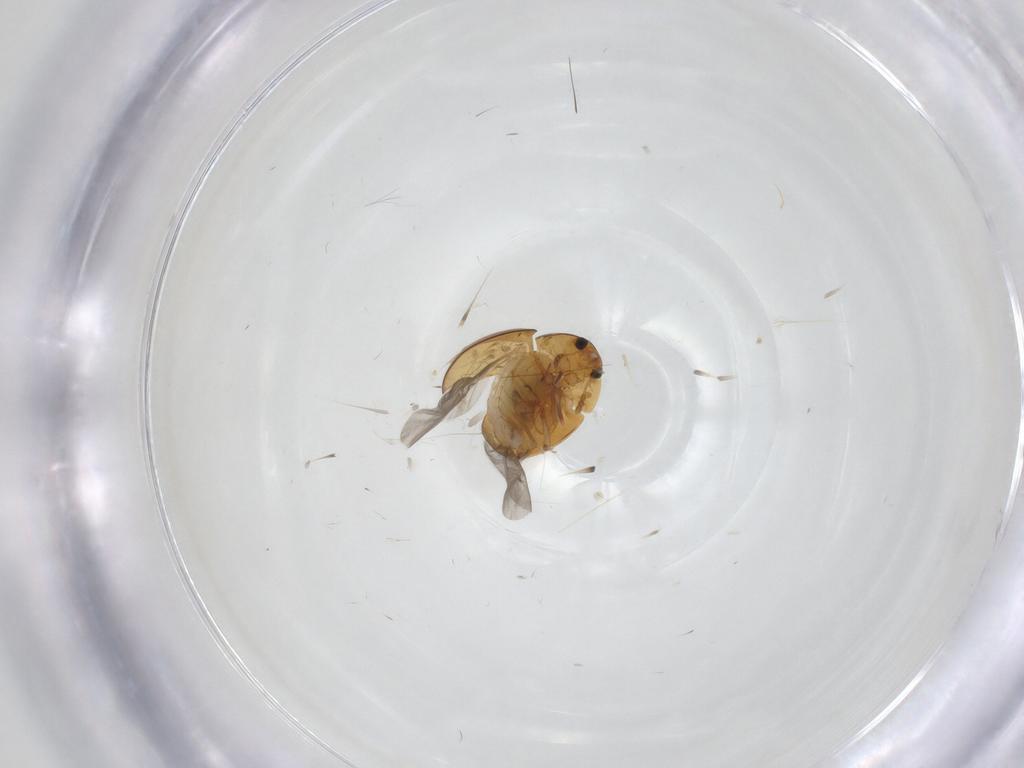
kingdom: Animalia
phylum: Arthropoda
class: Insecta
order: Coleoptera
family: Phalacridae
